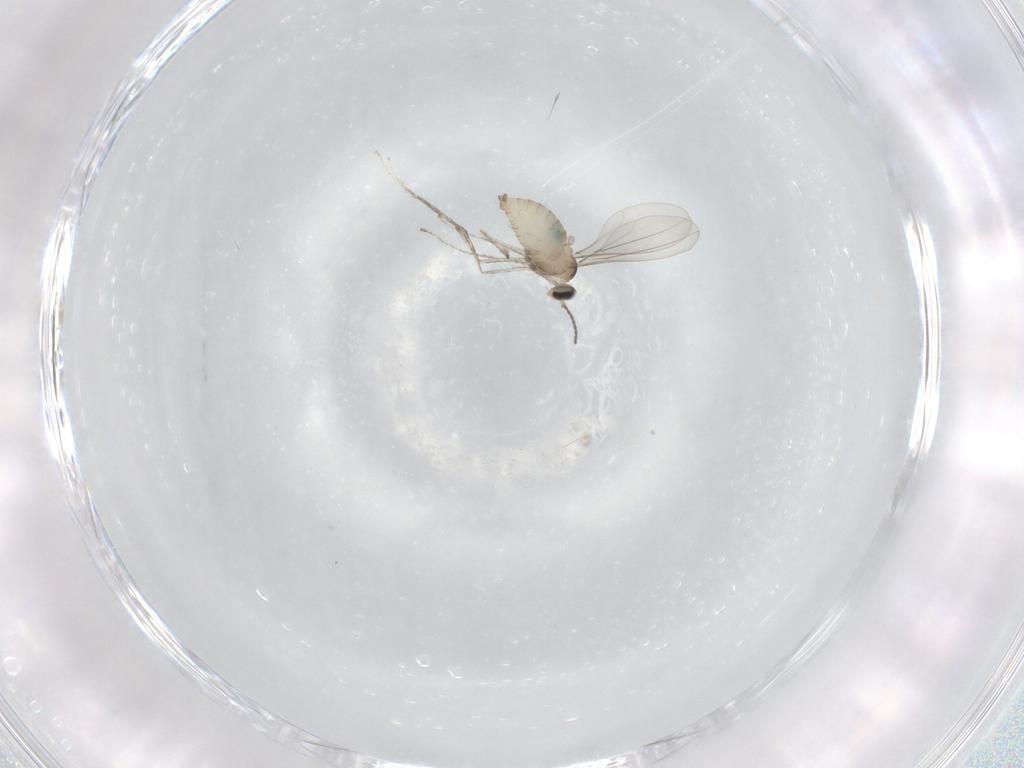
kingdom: Animalia
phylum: Arthropoda
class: Insecta
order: Diptera
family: Cecidomyiidae
